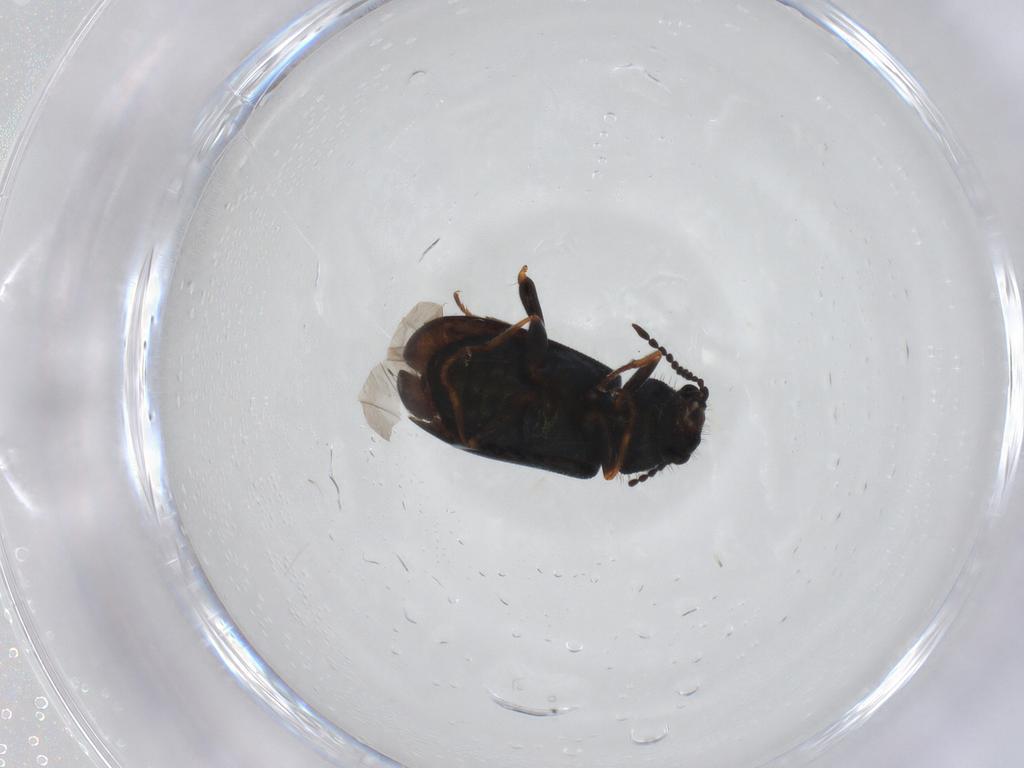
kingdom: Animalia
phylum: Arthropoda
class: Insecta
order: Coleoptera
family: Melyridae
